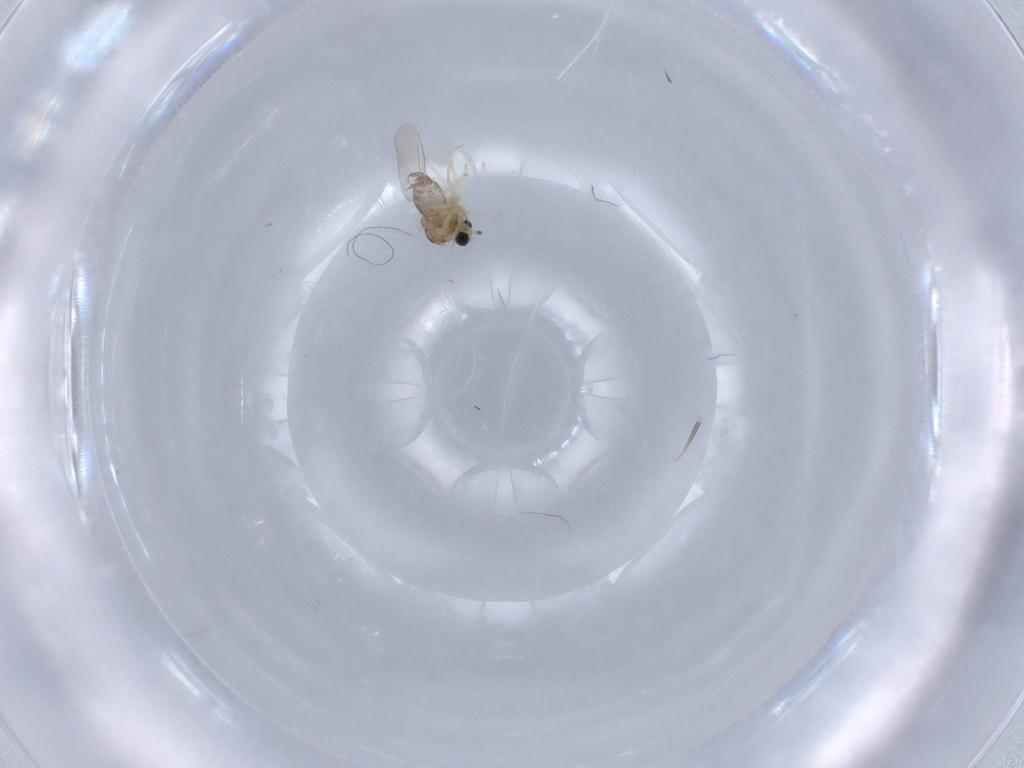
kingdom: Animalia
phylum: Arthropoda
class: Insecta
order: Diptera
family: Cecidomyiidae
